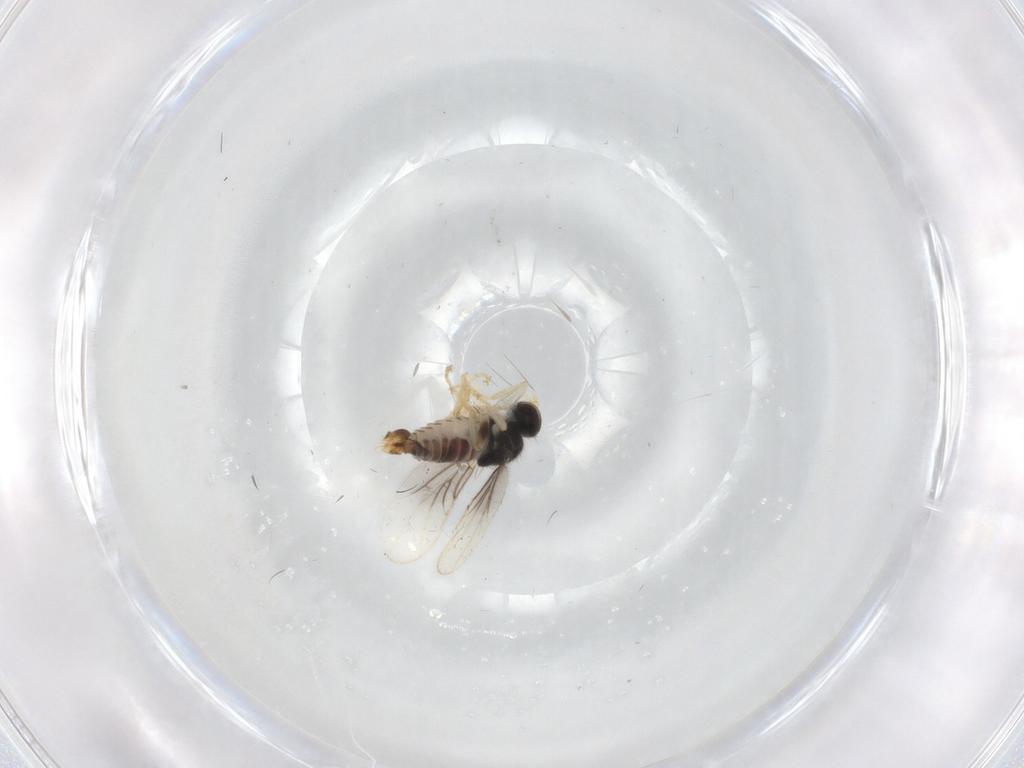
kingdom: Animalia
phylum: Arthropoda
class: Insecta
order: Diptera
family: Hybotidae
